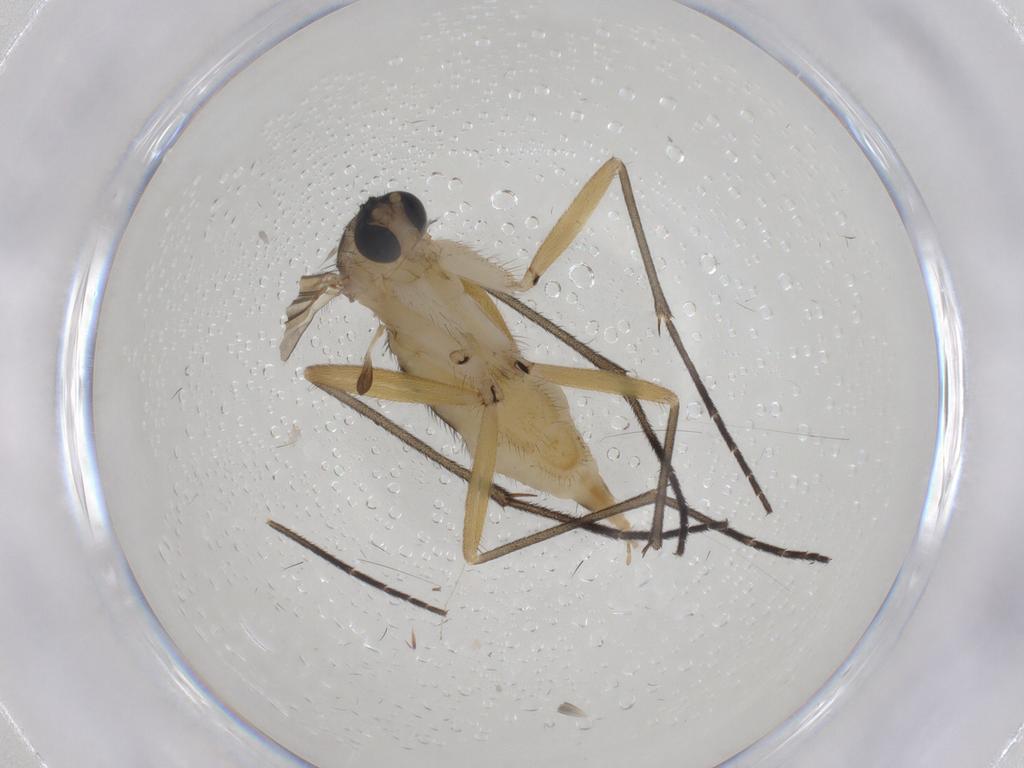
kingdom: Animalia
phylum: Arthropoda
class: Insecta
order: Diptera
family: Sciaridae
